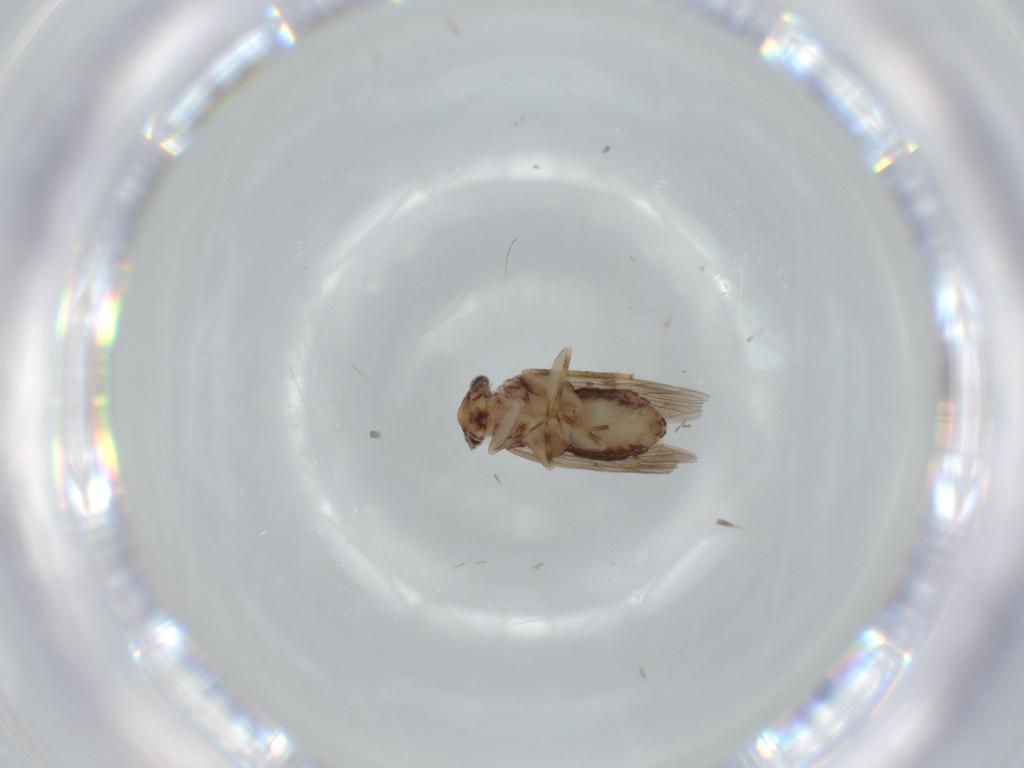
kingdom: Animalia
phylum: Arthropoda
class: Insecta
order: Psocodea
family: Lepidopsocidae
